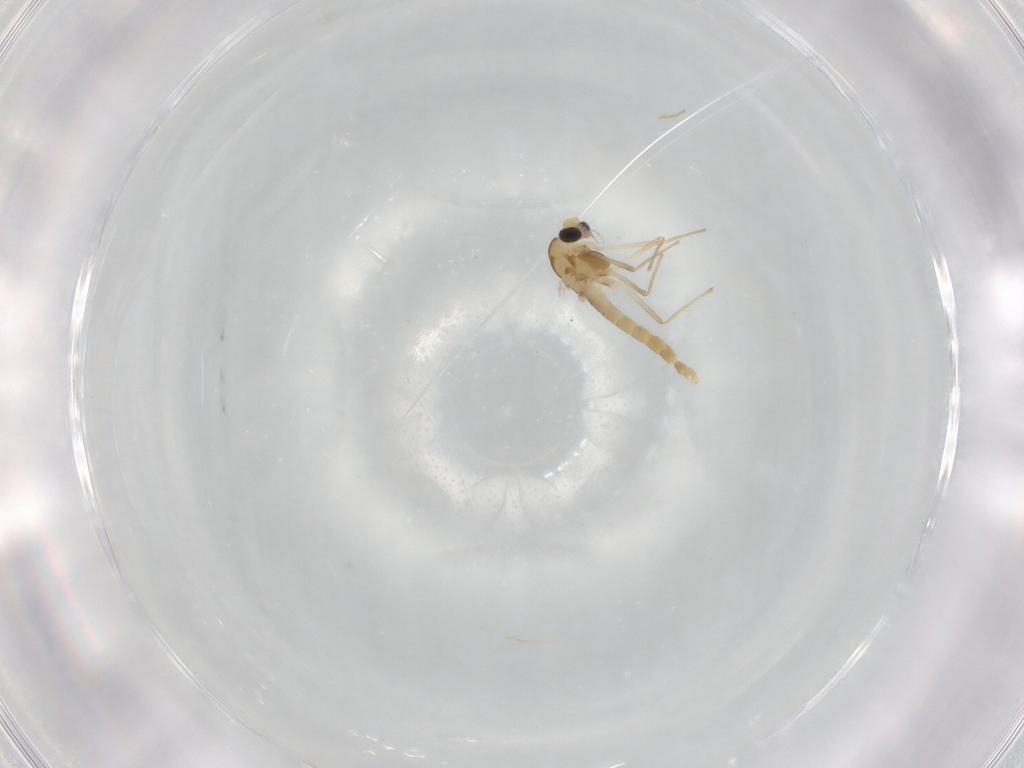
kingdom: Animalia
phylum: Arthropoda
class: Insecta
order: Diptera
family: Chironomidae
